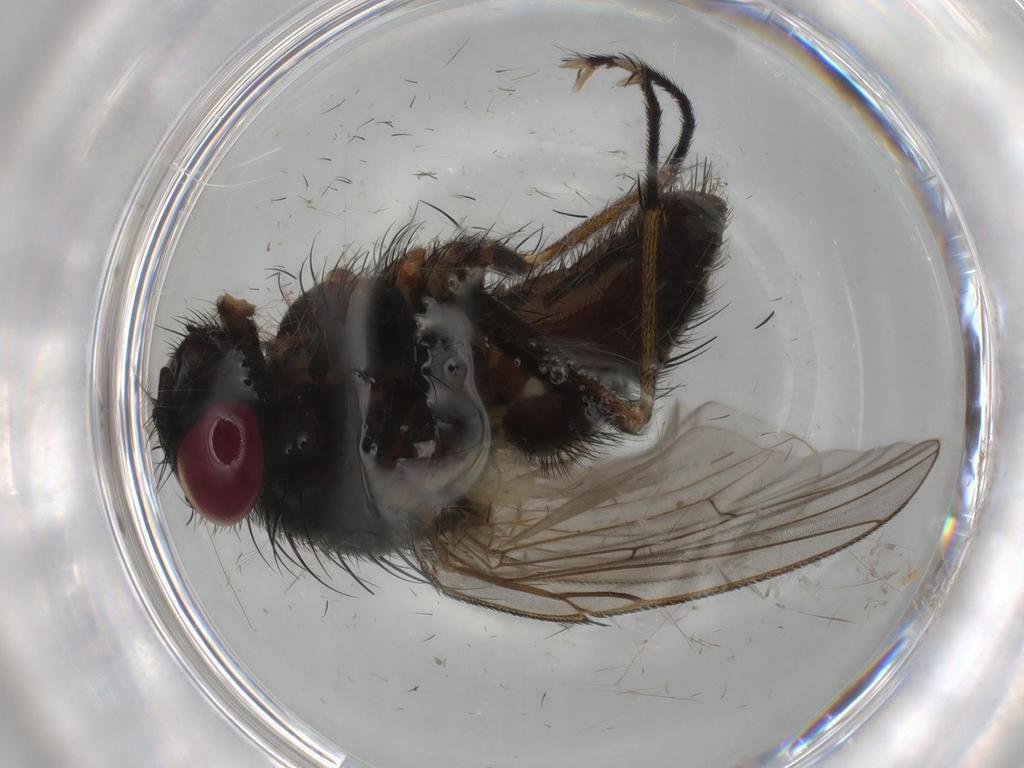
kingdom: Animalia
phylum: Arthropoda
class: Insecta
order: Diptera
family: Muscidae
